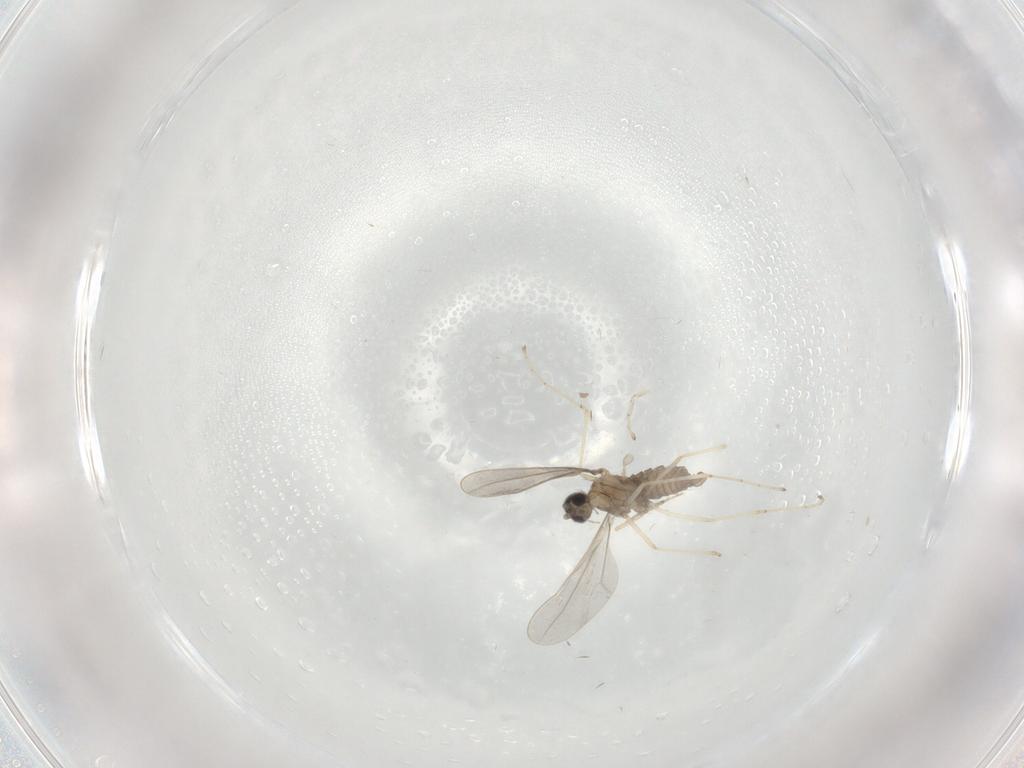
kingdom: Animalia
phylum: Arthropoda
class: Insecta
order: Diptera
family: Cecidomyiidae
